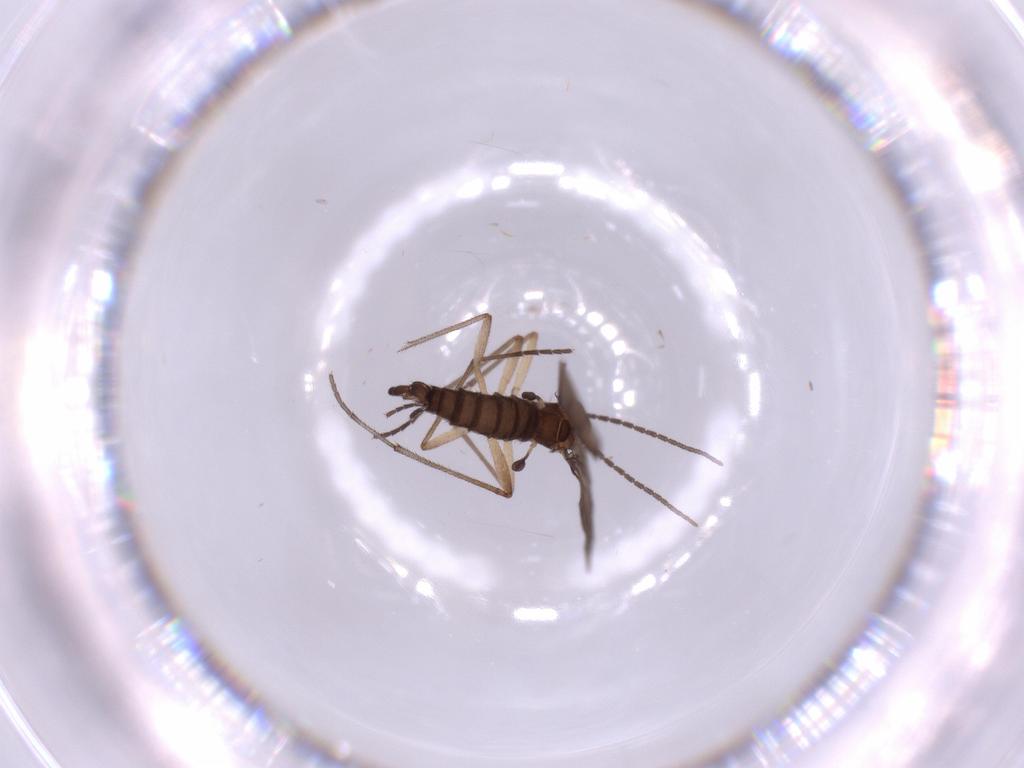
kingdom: Animalia
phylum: Arthropoda
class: Insecta
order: Diptera
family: Sciaridae
